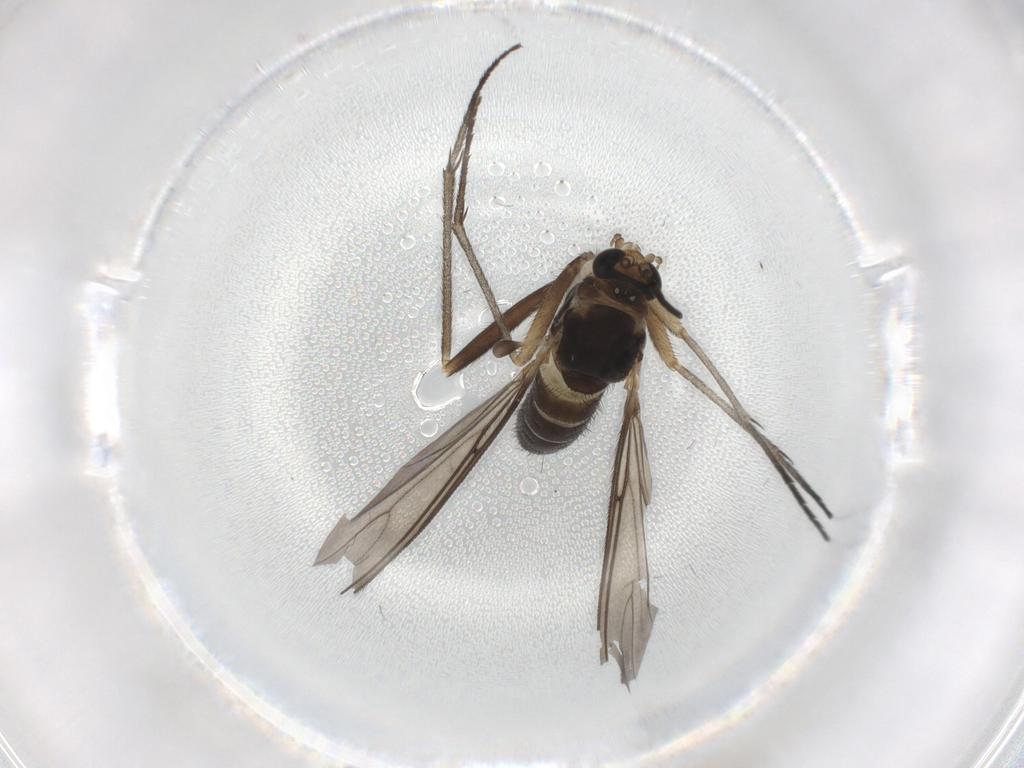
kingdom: Animalia
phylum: Arthropoda
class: Insecta
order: Diptera
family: Sciaridae
